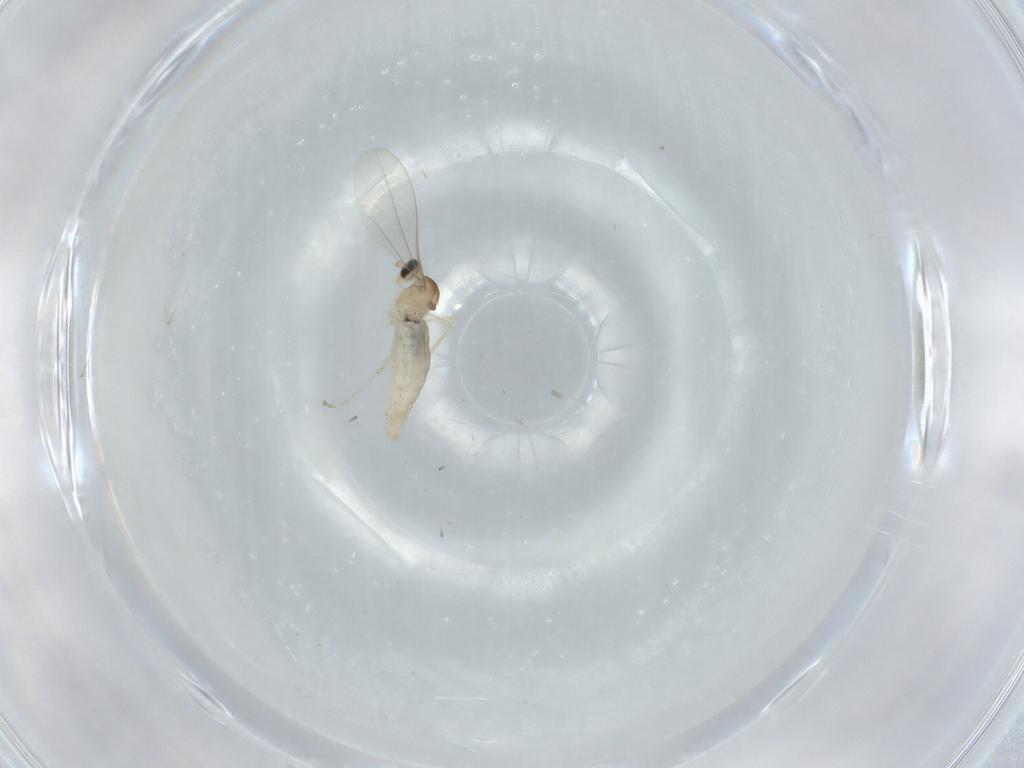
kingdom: Animalia
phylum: Arthropoda
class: Insecta
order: Diptera
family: Cecidomyiidae
